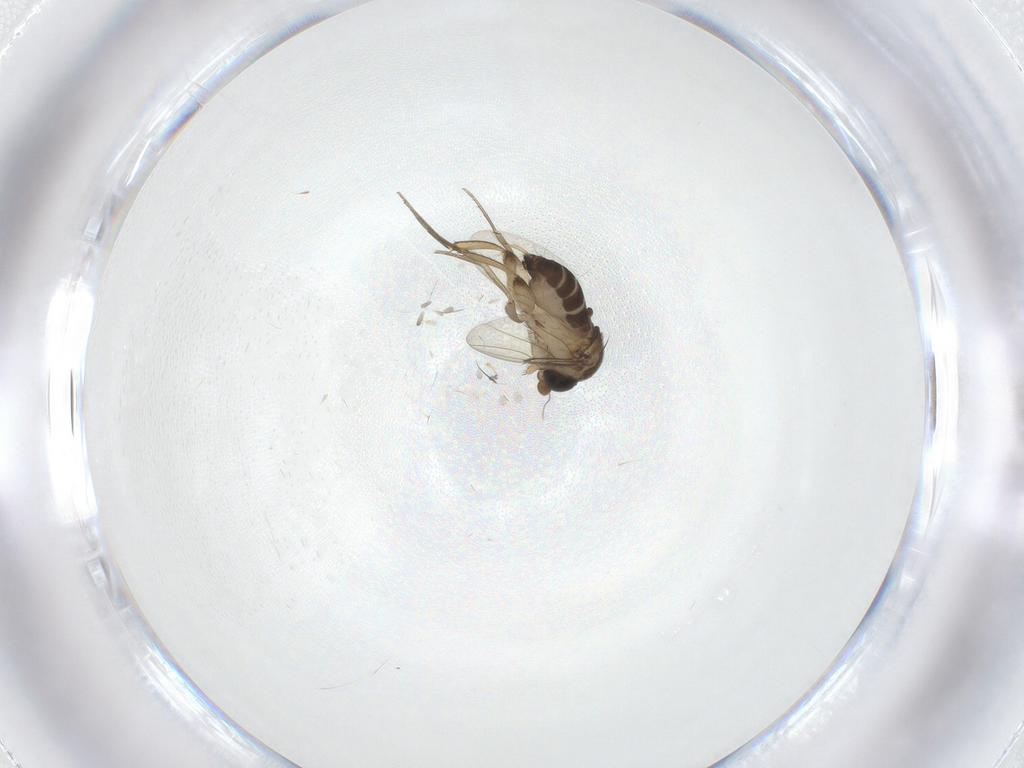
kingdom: Animalia
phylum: Arthropoda
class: Insecta
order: Diptera
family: Phoridae
